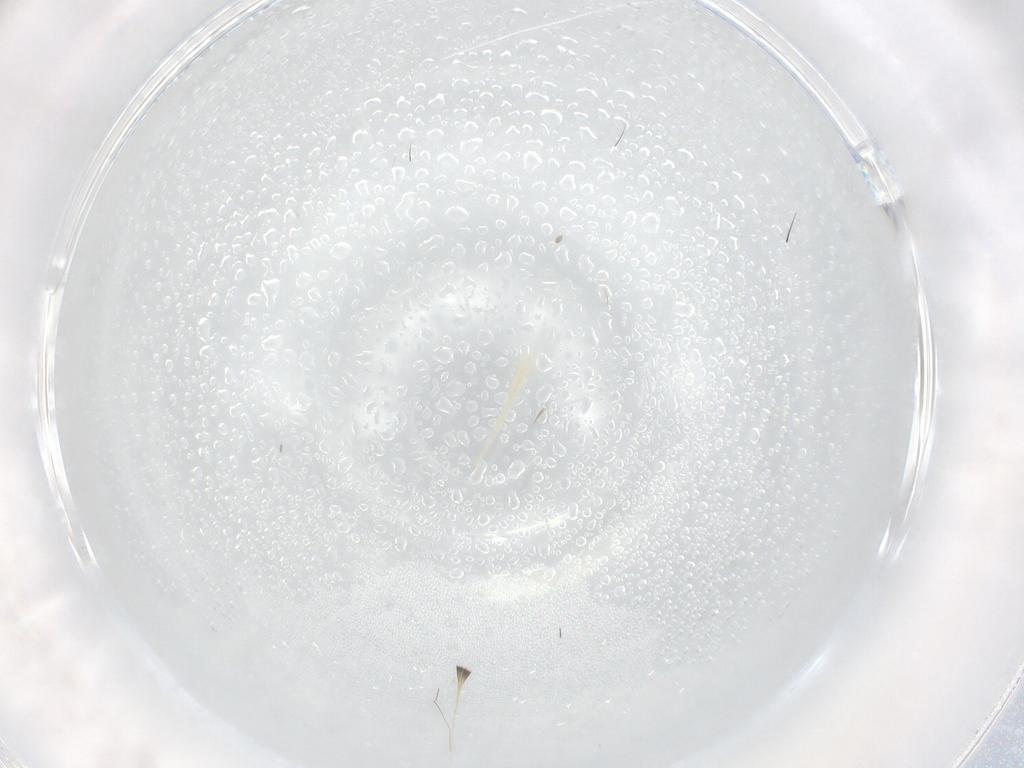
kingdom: Animalia
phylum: Arthropoda
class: Arachnida
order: Mesostigmata
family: Phytoseiidae
